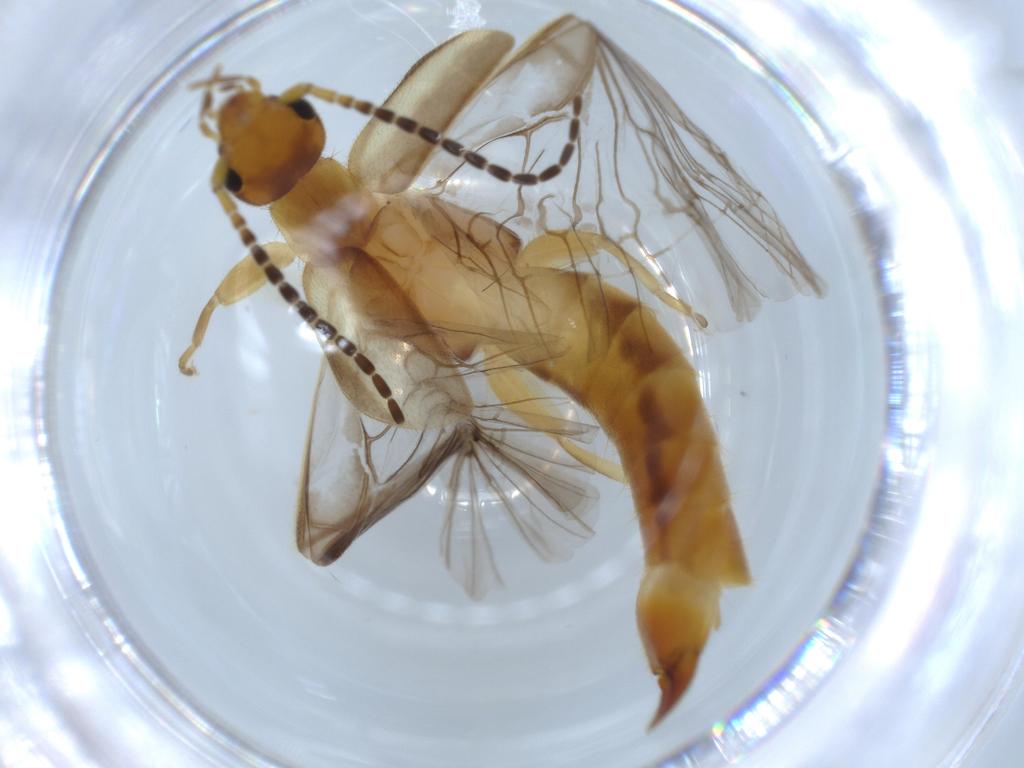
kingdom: Animalia
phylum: Arthropoda
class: Insecta
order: Dermaptera
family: Forficulidae
